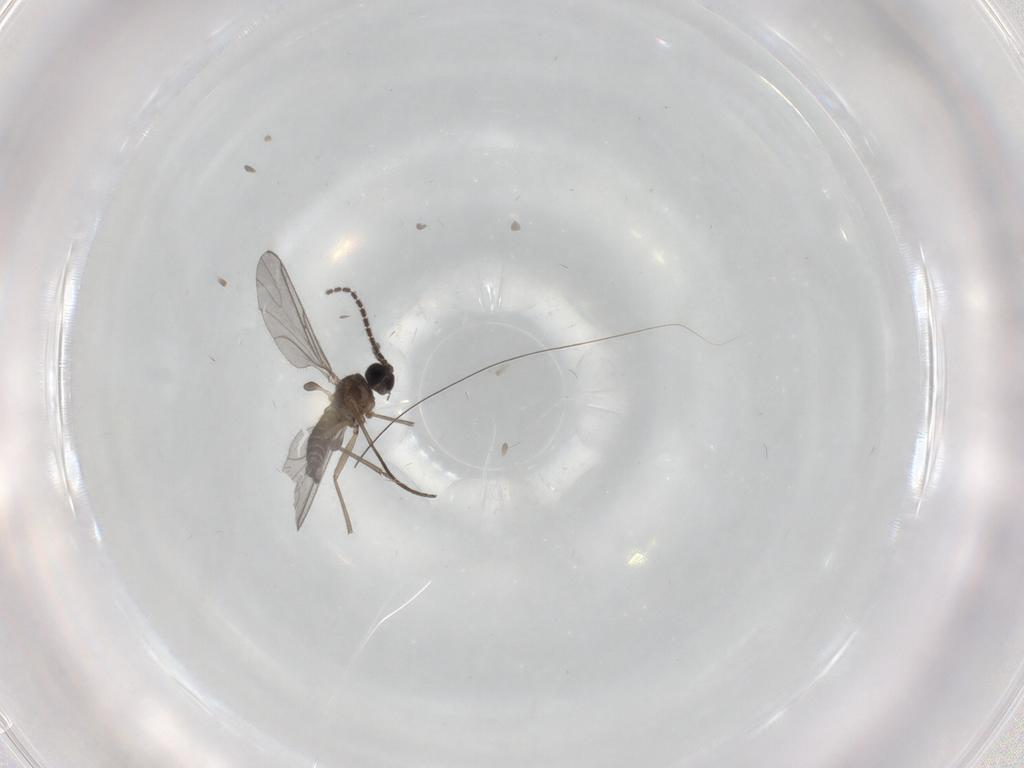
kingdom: Animalia
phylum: Arthropoda
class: Insecta
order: Diptera
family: Sciaridae
